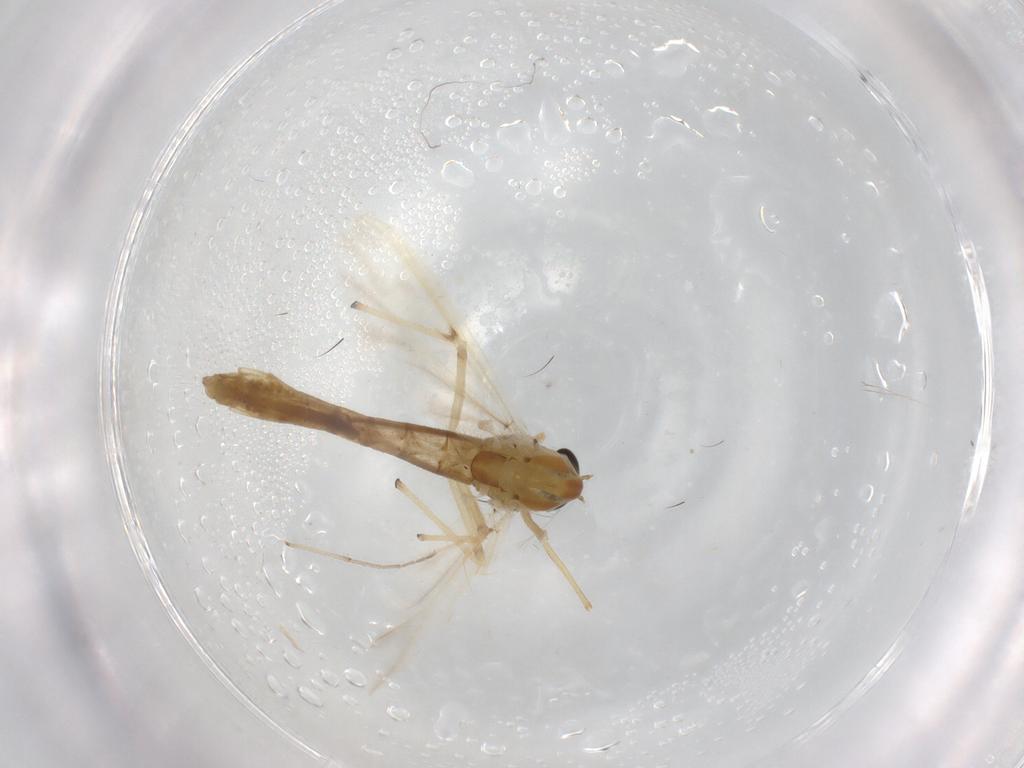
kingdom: Animalia
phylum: Arthropoda
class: Insecta
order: Diptera
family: Chironomidae
